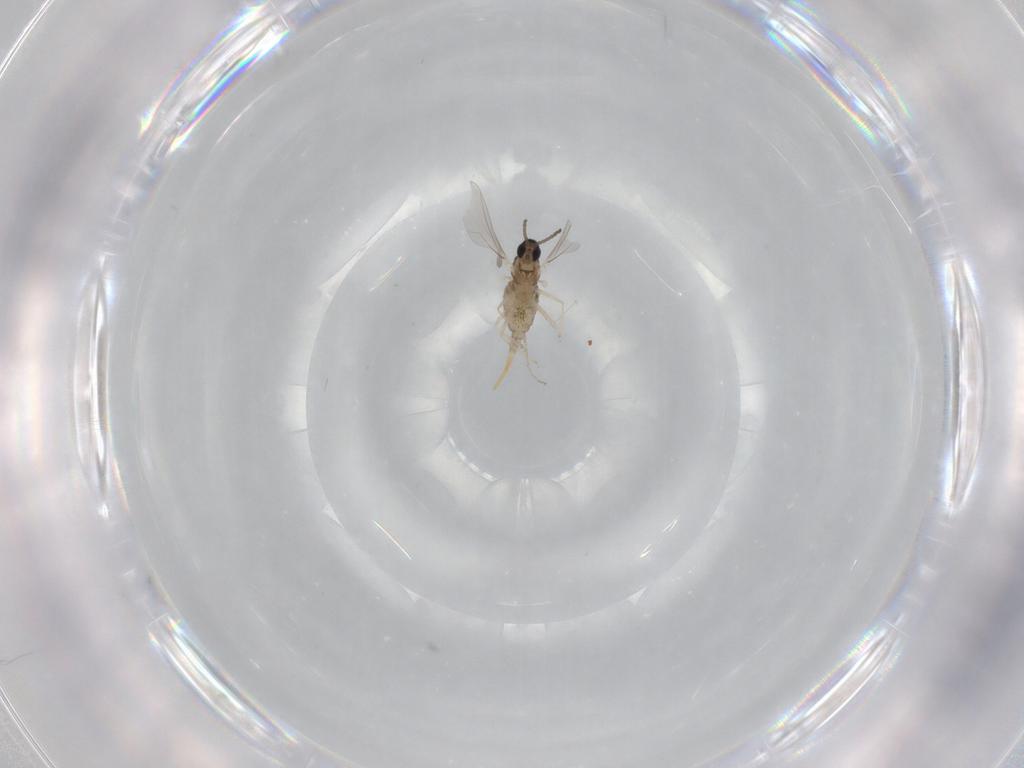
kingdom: Animalia
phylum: Arthropoda
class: Insecta
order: Diptera
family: Cecidomyiidae
